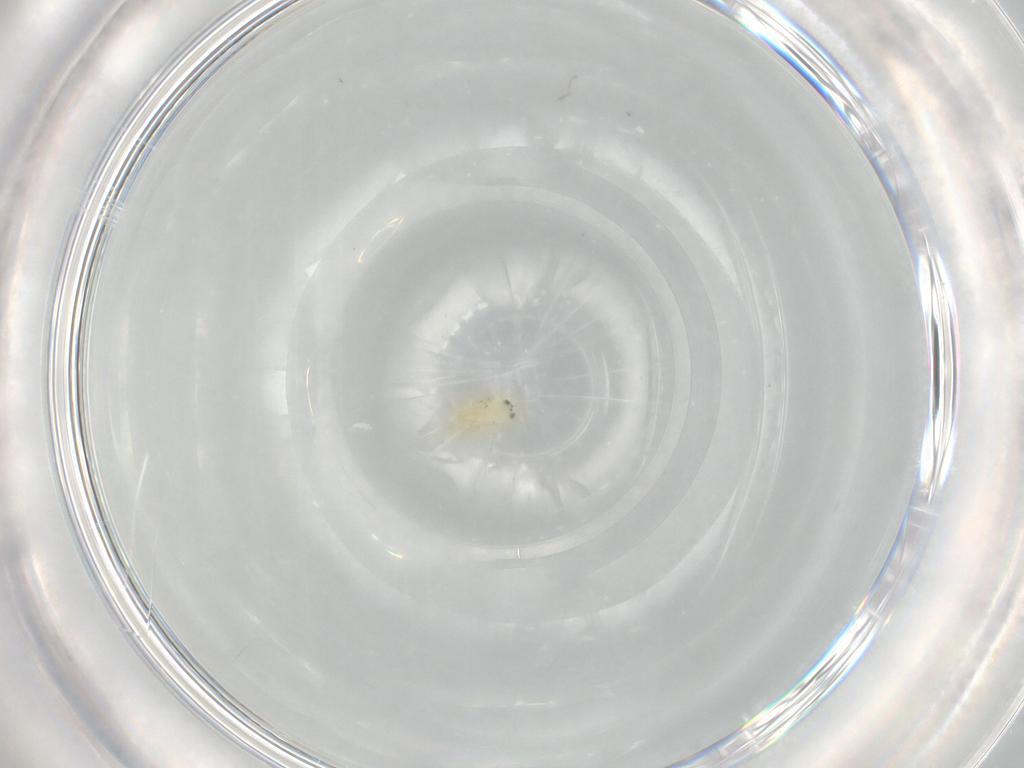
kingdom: Animalia
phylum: Arthropoda
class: Insecta
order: Hymenoptera
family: Aphelinidae
